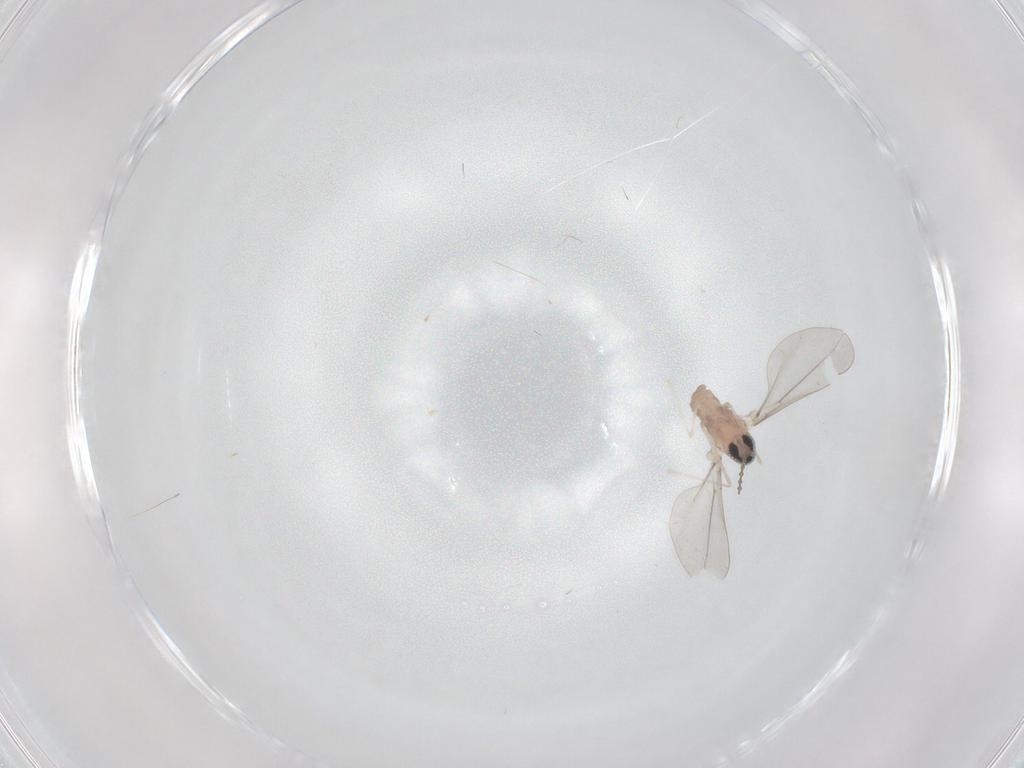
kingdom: Animalia
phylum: Arthropoda
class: Insecta
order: Diptera
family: Cecidomyiidae
